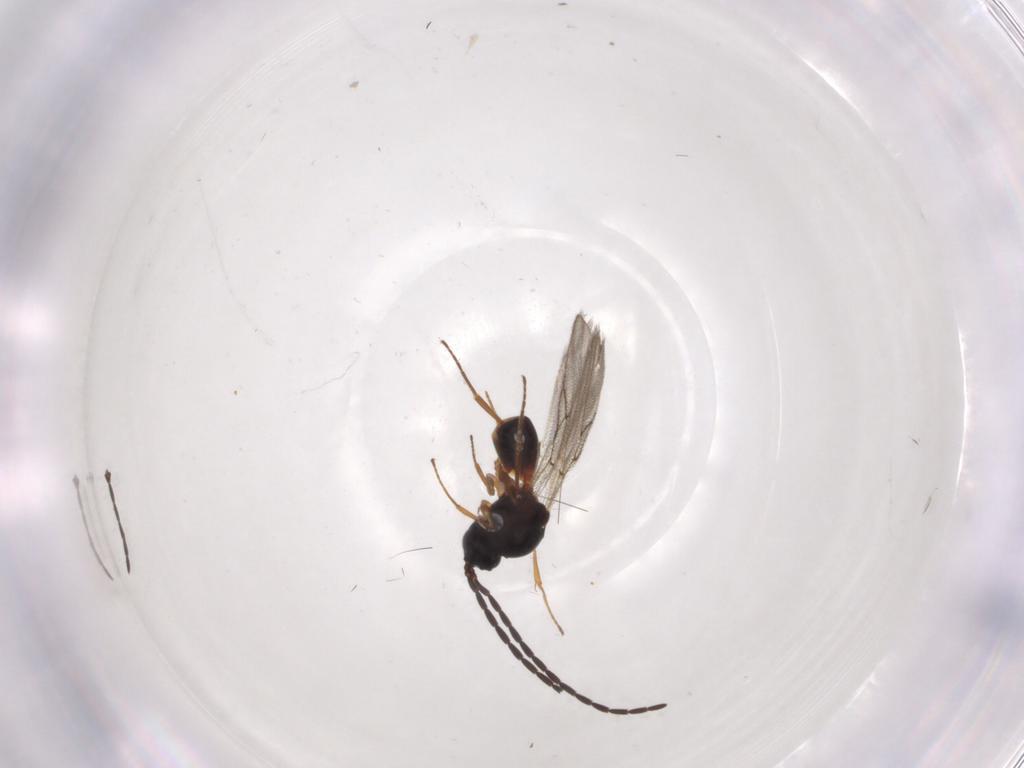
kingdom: Animalia
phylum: Arthropoda
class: Insecta
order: Hymenoptera
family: Figitidae
